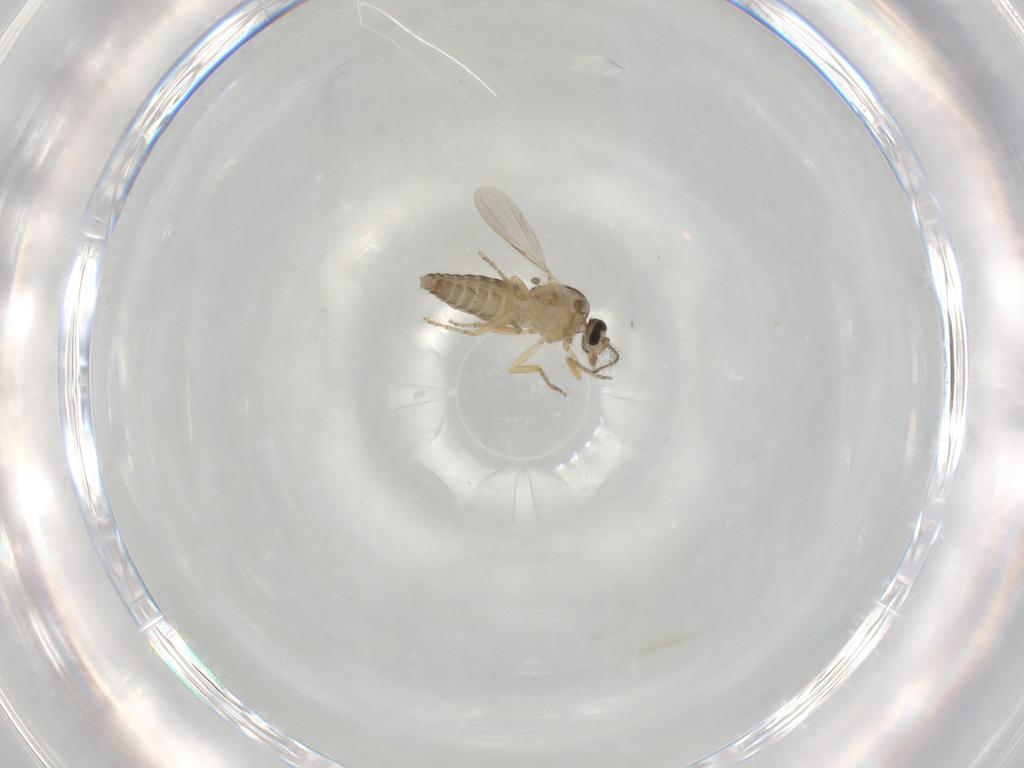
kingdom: Animalia
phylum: Arthropoda
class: Insecta
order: Diptera
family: Ceratopogonidae
